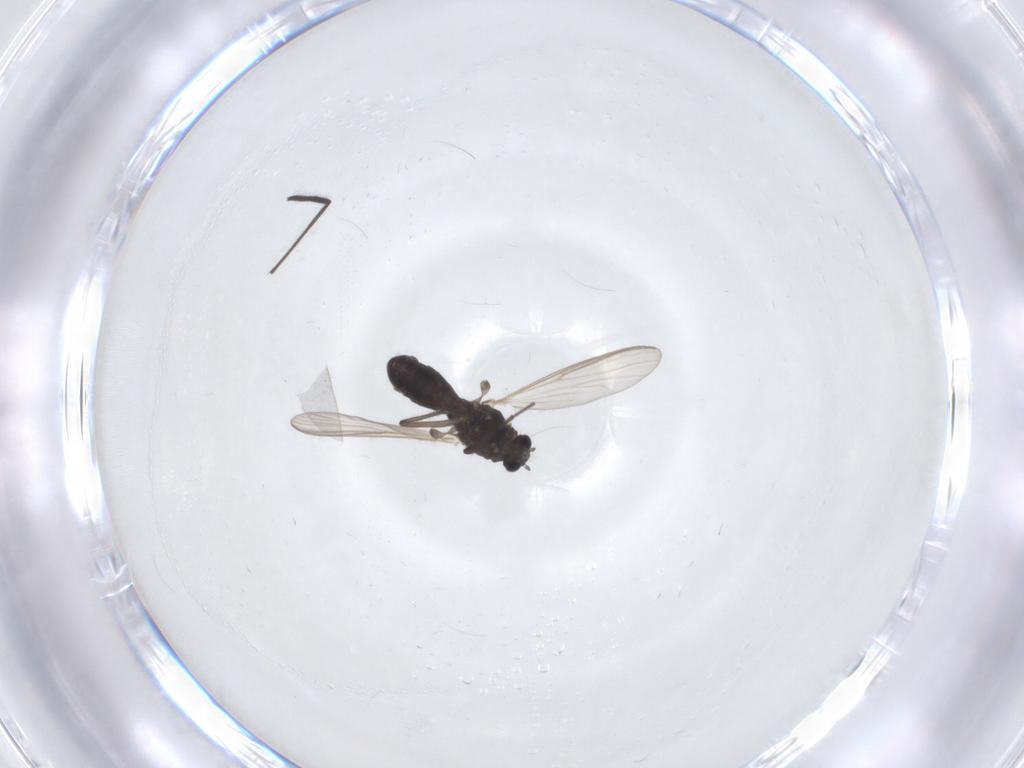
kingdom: Animalia
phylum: Arthropoda
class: Insecta
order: Diptera
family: Chironomidae
